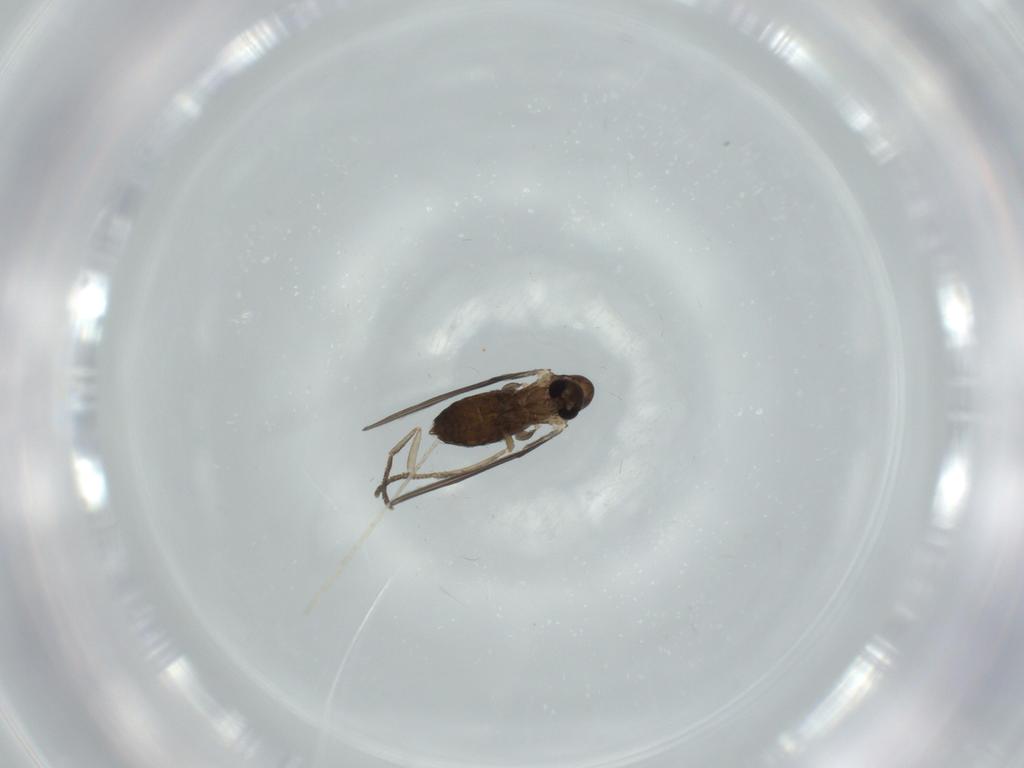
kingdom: Animalia
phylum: Arthropoda
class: Insecta
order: Diptera
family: Psychodidae
